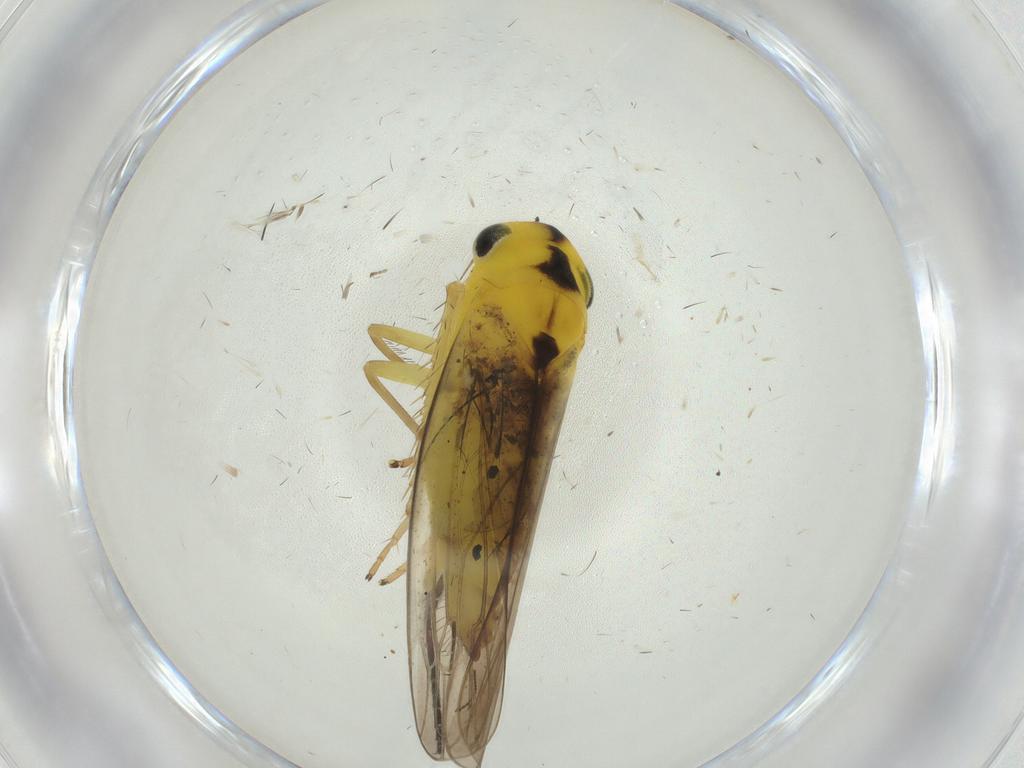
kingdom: Animalia
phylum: Arthropoda
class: Insecta
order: Hemiptera
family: Cicadellidae
